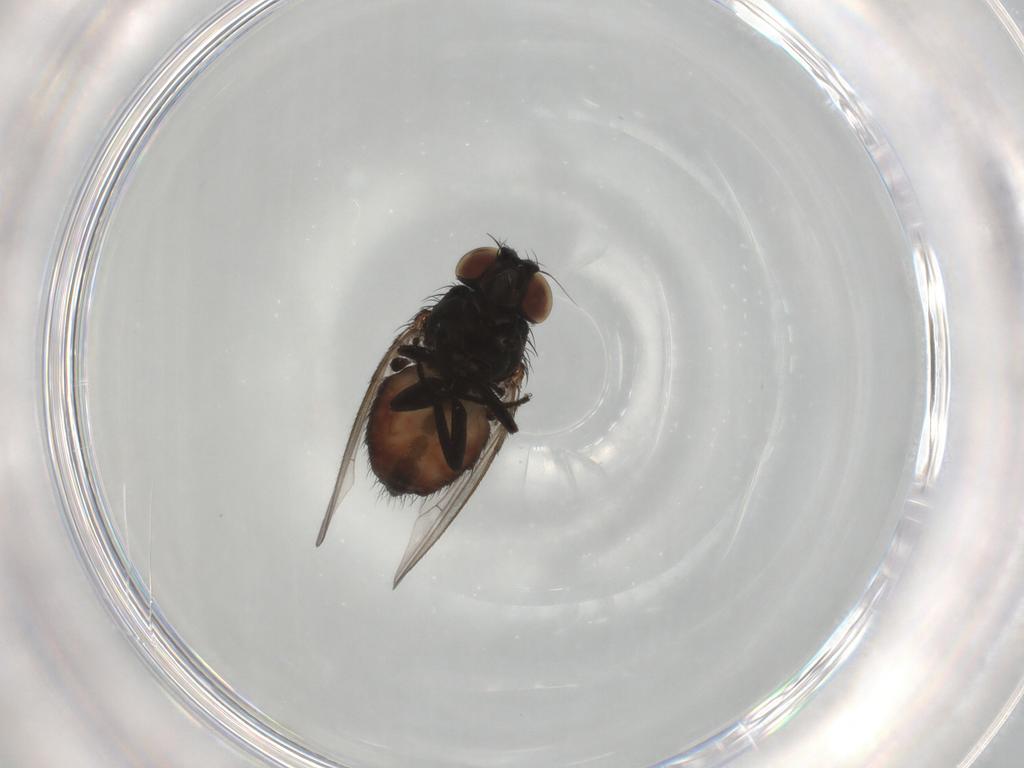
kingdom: Animalia
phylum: Arthropoda
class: Insecta
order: Diptera
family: Milichiidae
